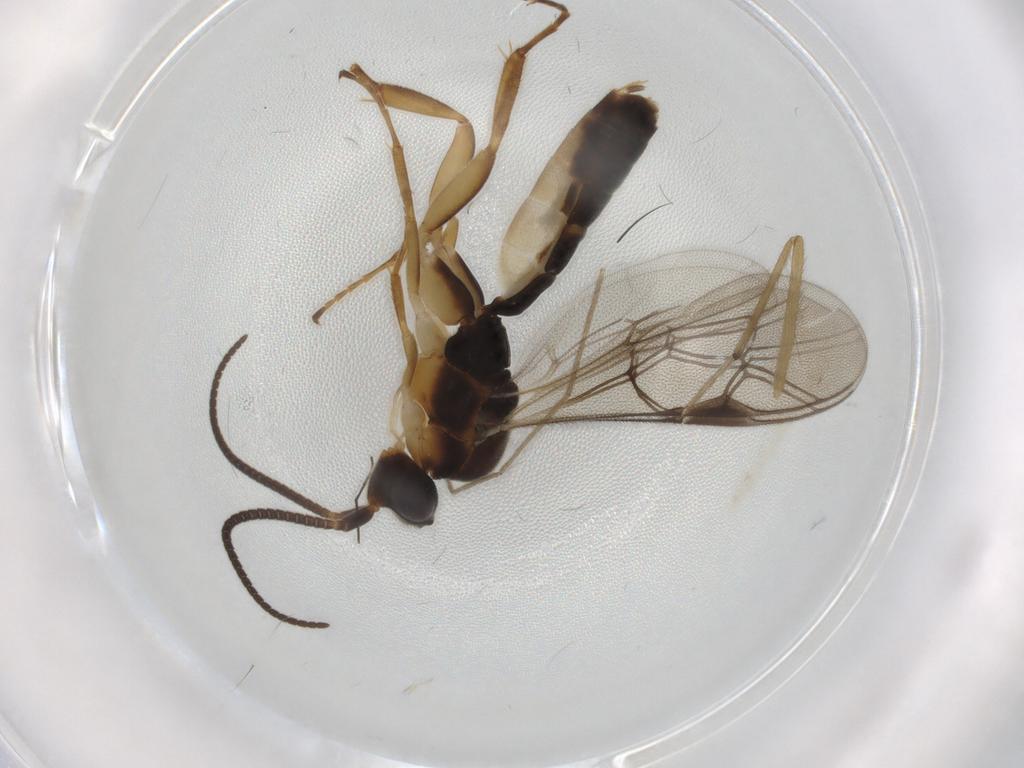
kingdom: Animalia
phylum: Arthropoda
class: Insecta
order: Hymenoptera
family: Ichneumonidae
